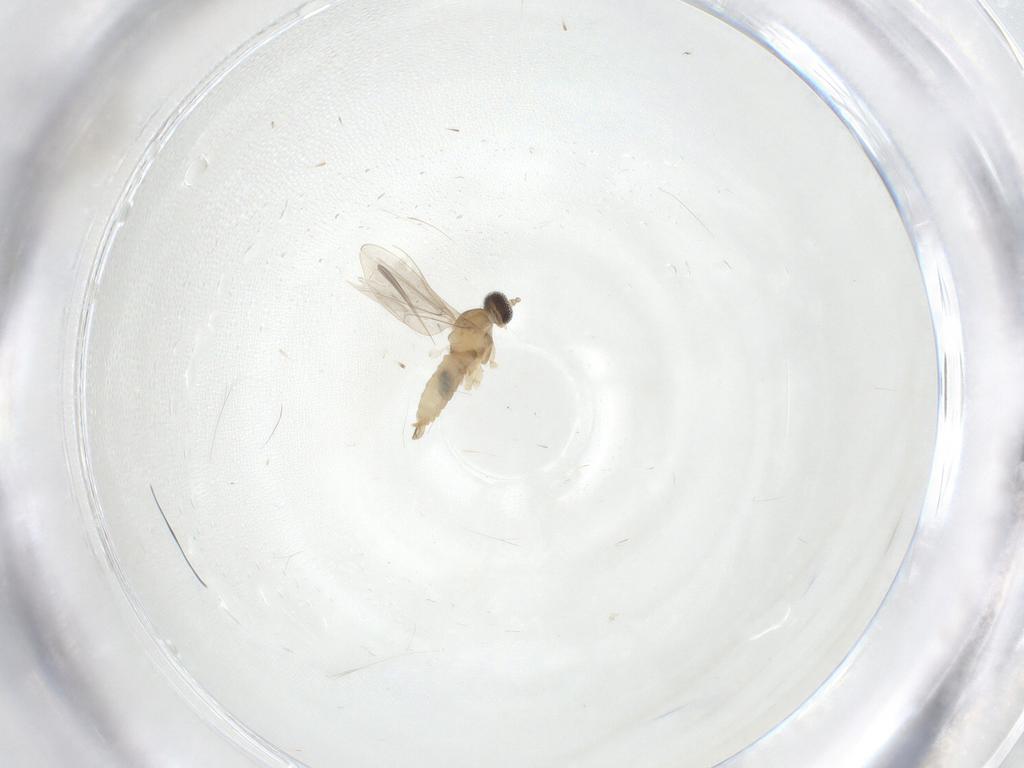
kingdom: Animalia
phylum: Arthropoda
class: Insecta
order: Diptera
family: Cecidomyiidae
